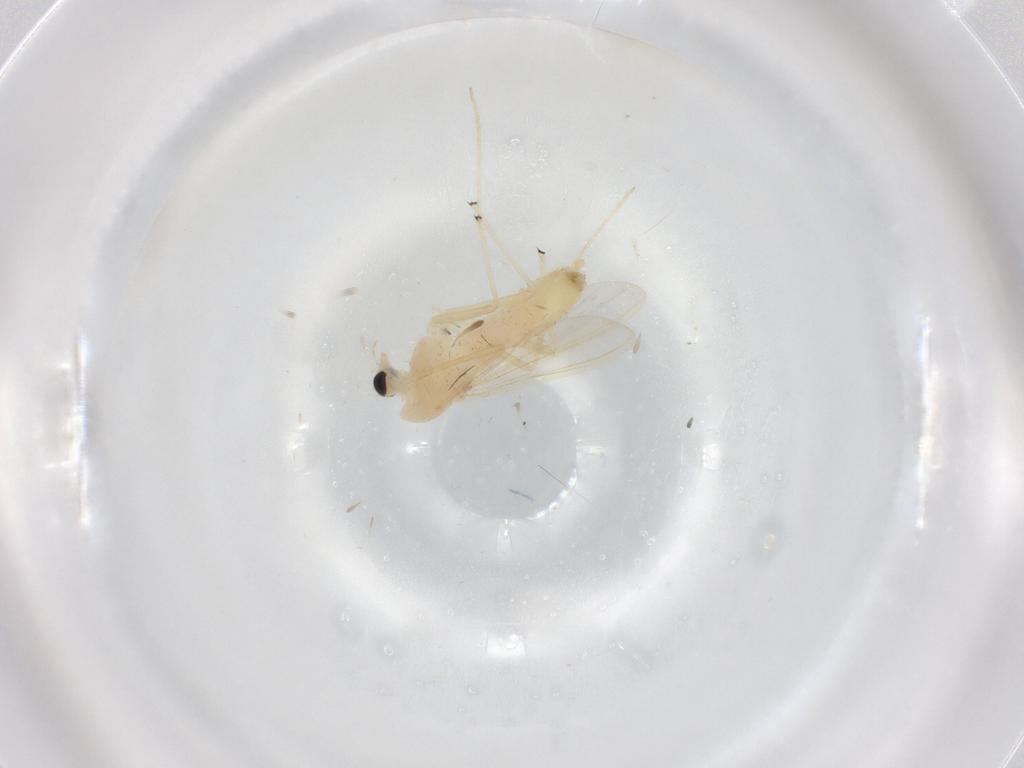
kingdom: Animalia
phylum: Arthropoda
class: Insecta
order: Diptera
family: Chironomidae
